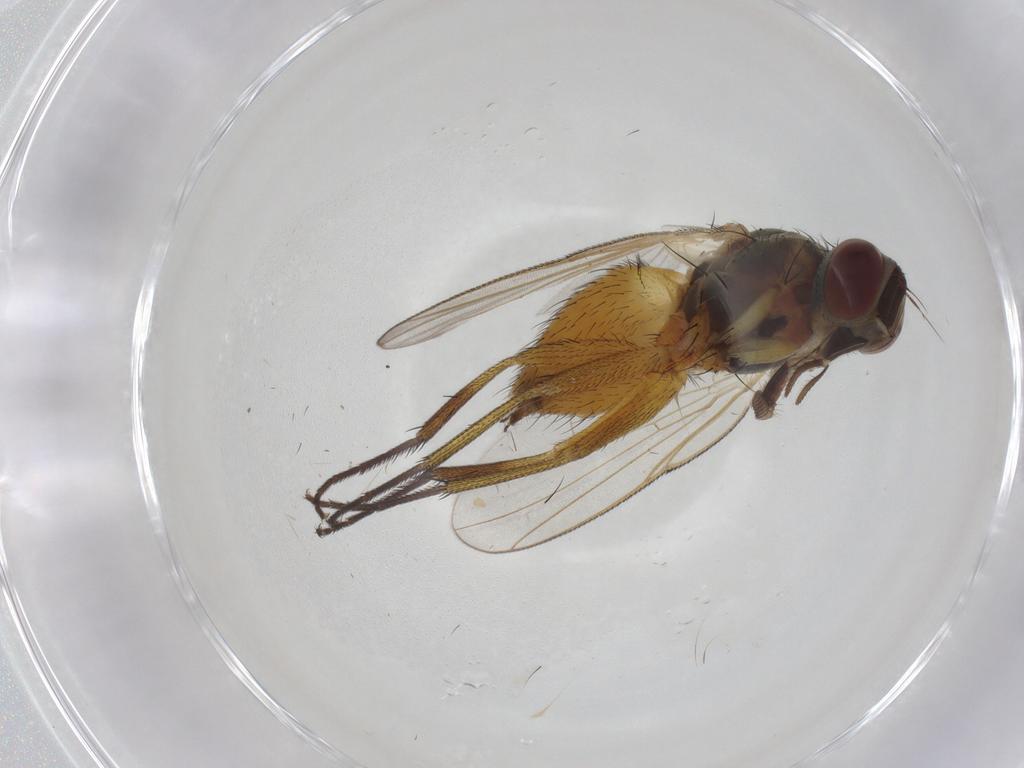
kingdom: Animalia
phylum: Arthropoda
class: Insecta
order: Diptera
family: Muscidae
